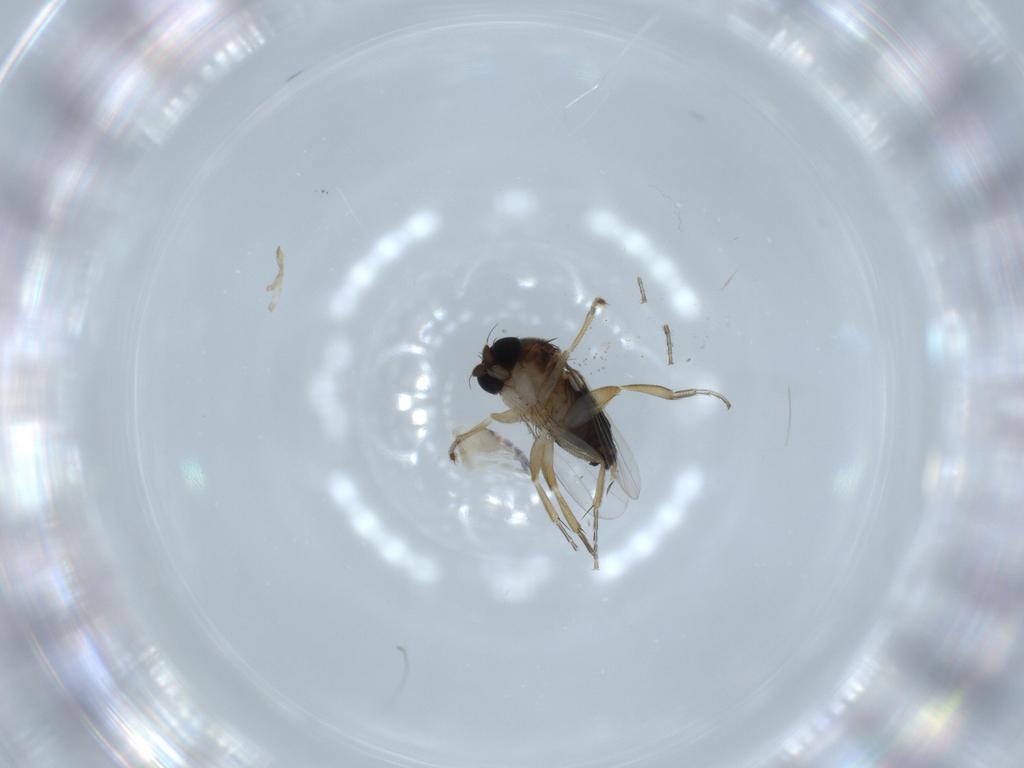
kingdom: Animalia
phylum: Arthropoda
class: Insecta
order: Diptera
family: Phoridae
